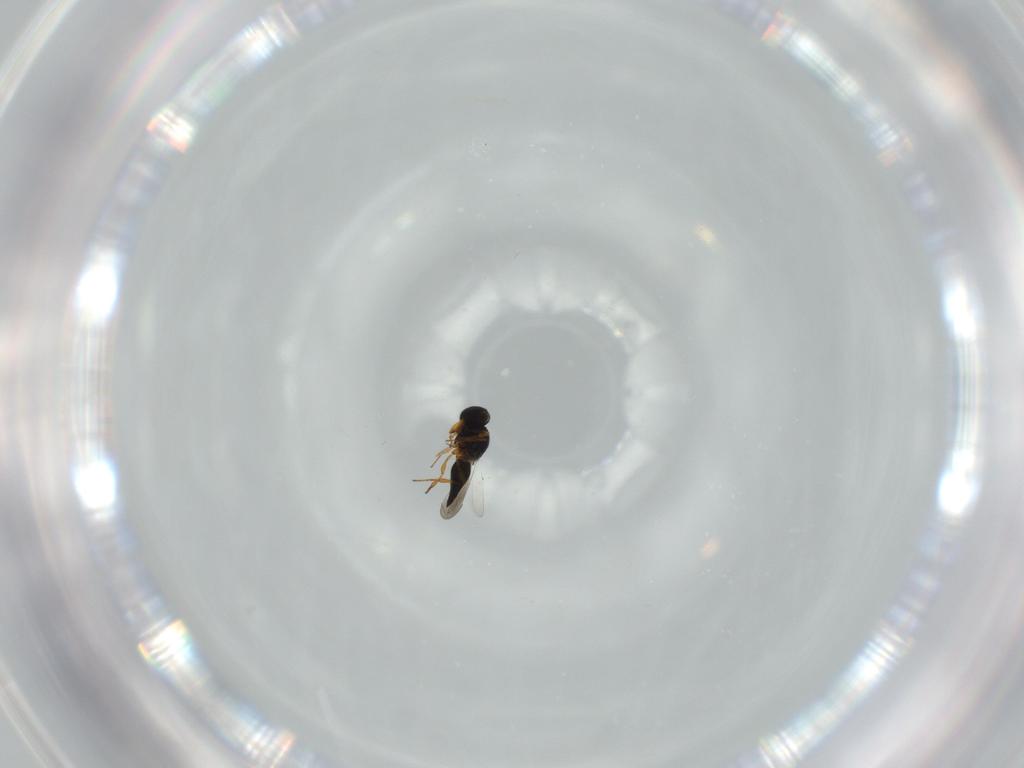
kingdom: Animalia
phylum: Arthropoda
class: Insecta
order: Hymenoptera
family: Platygastridae
